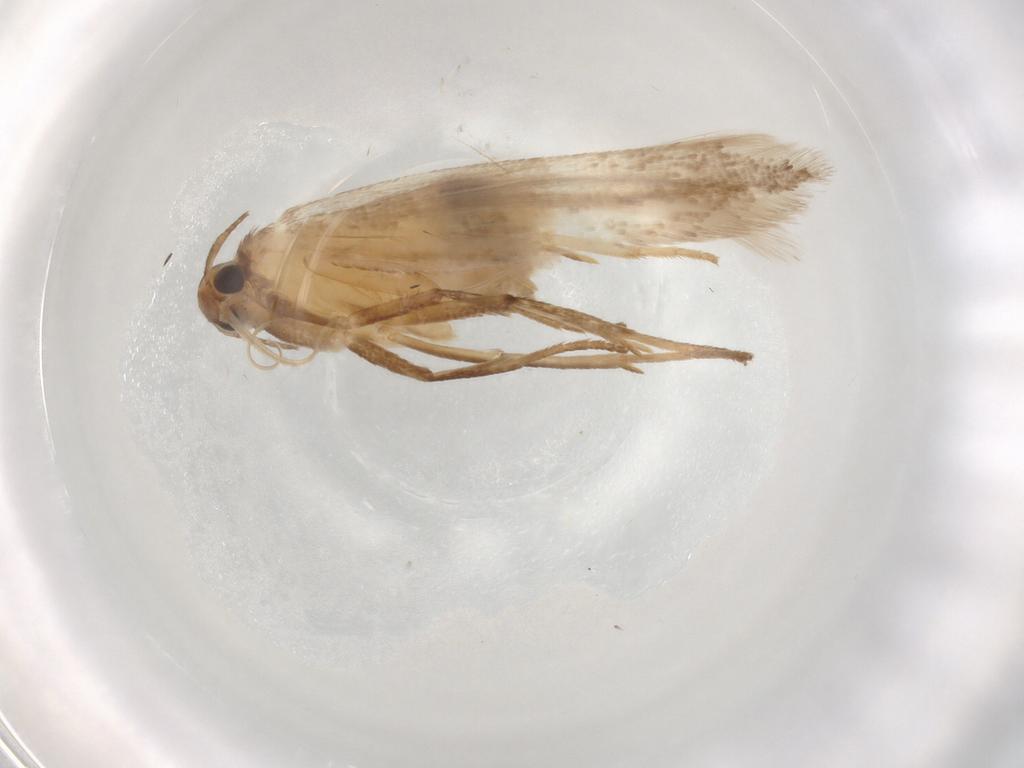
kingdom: Animalia
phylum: Arthropoda
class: Insecta
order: Lepidoptera
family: Gelechiidae
